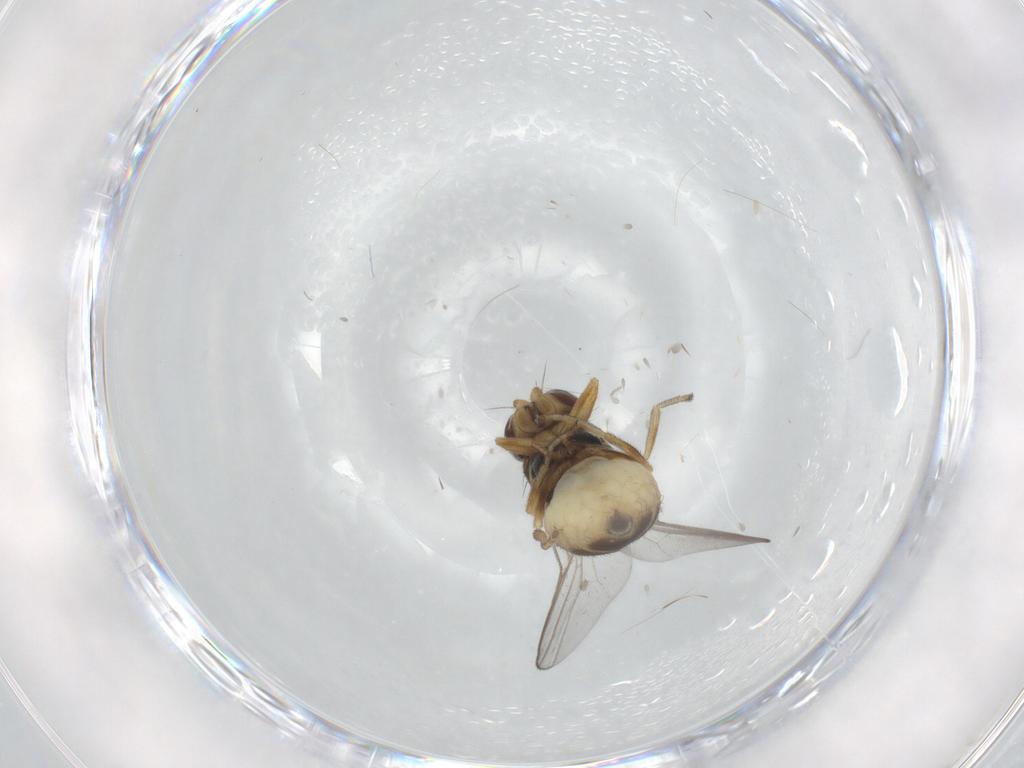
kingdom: Animalia
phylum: Arthropoda
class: Insecta
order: Diptera
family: Chloropidae
